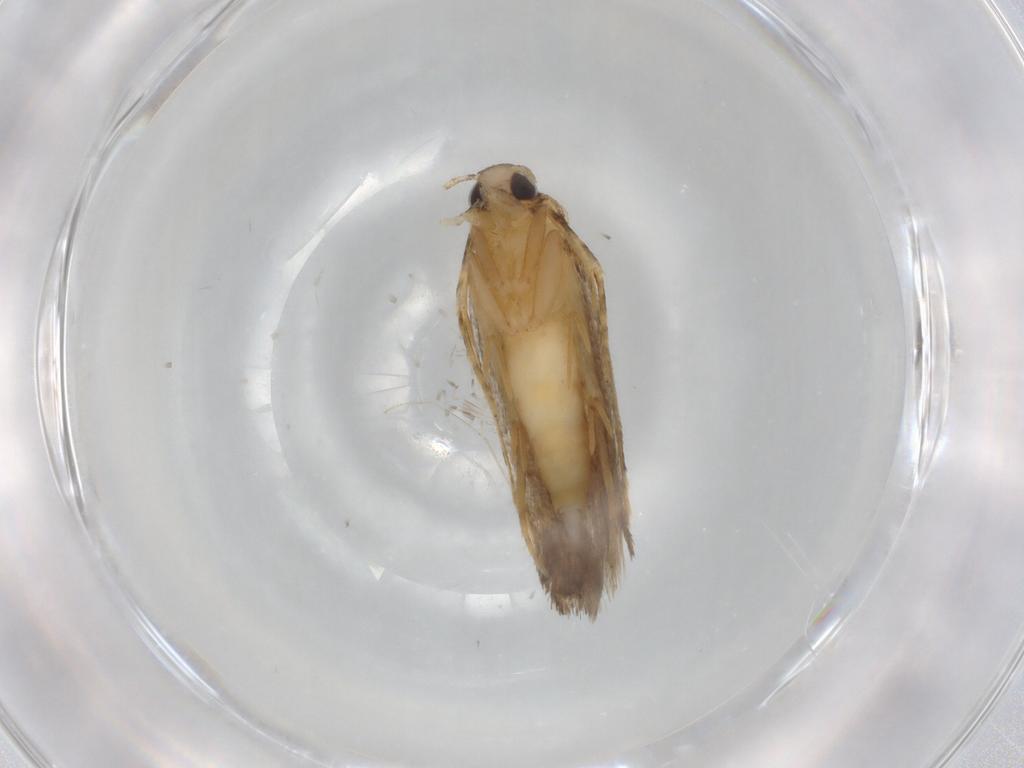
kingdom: Animalia
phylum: Arthropoda
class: Insecta
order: Lepidoptera
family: Autostichidae
